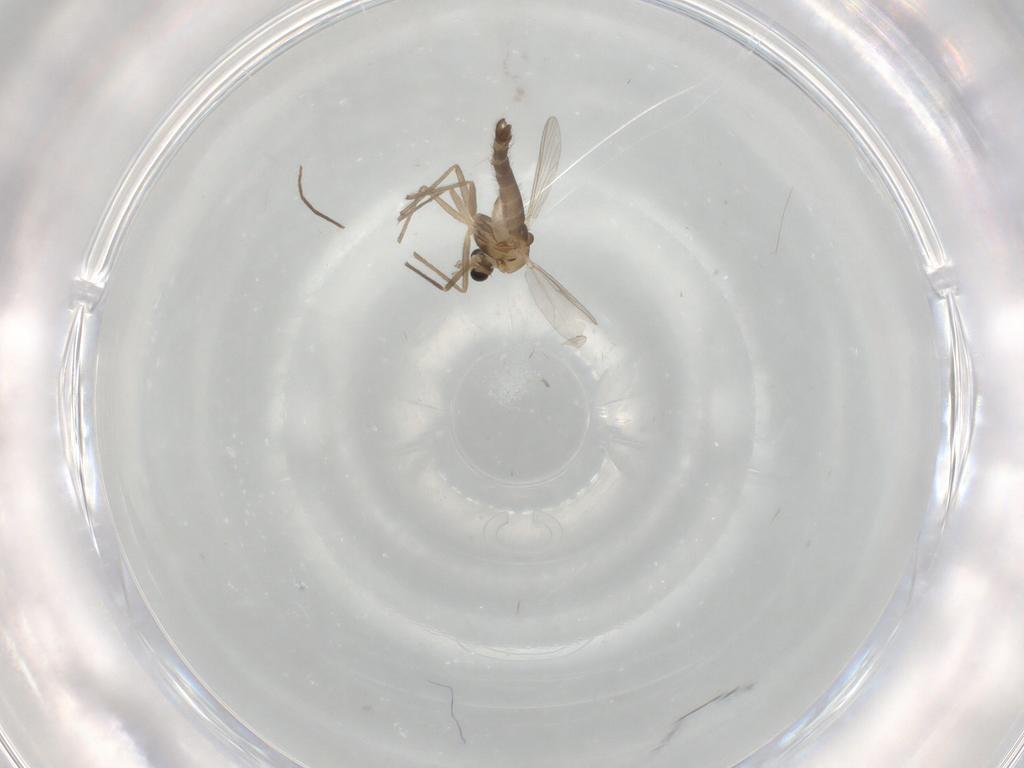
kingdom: Animalia
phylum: Arthropoda
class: Insecta
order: Diptera
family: Chironomidae
